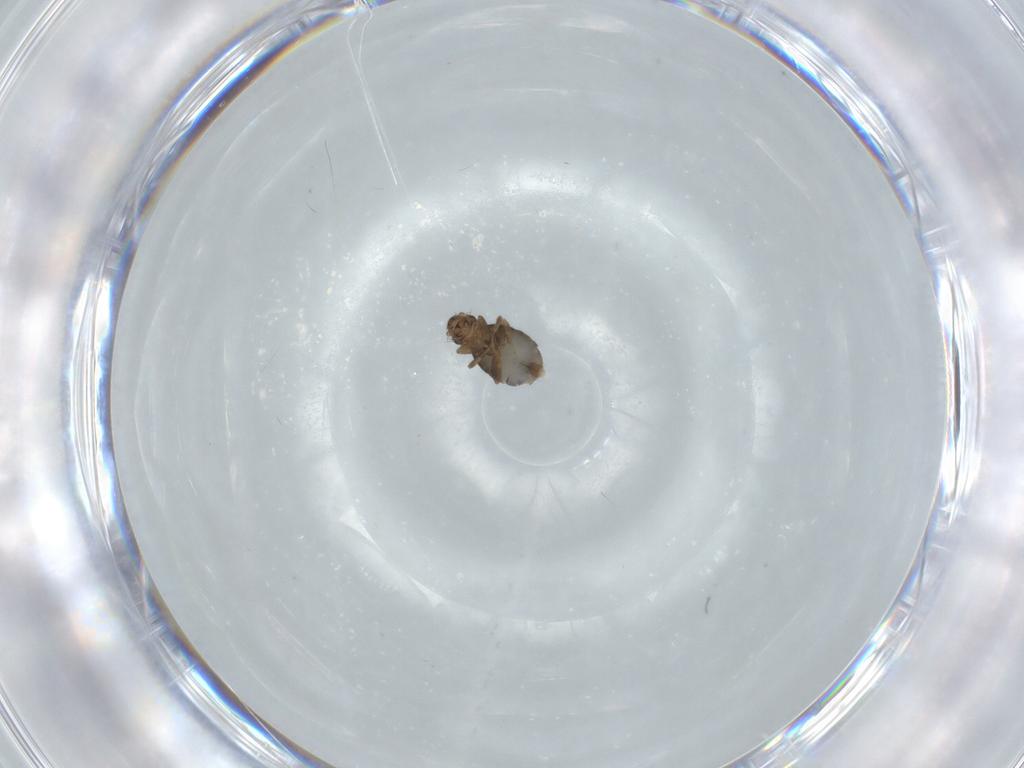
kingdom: Animalia
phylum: Arthropoda
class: Insecta
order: Diptera
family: Phoridae
